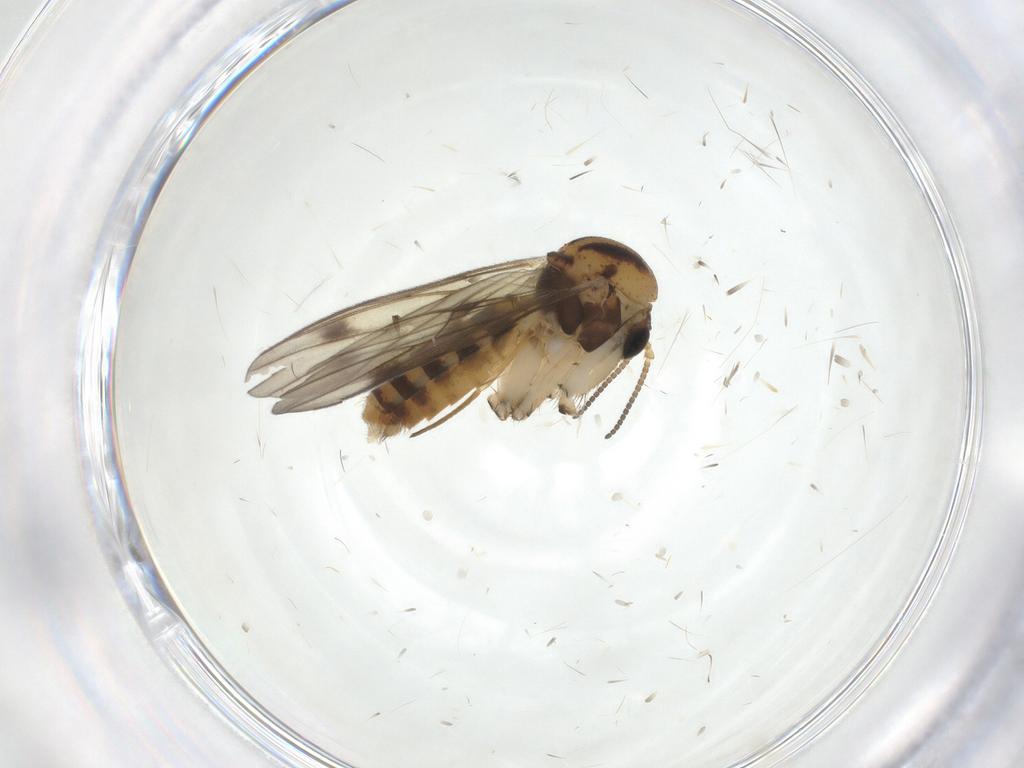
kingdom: Animalia
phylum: Arthropoda
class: Insecta
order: Diptera
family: Mycetophilidae
